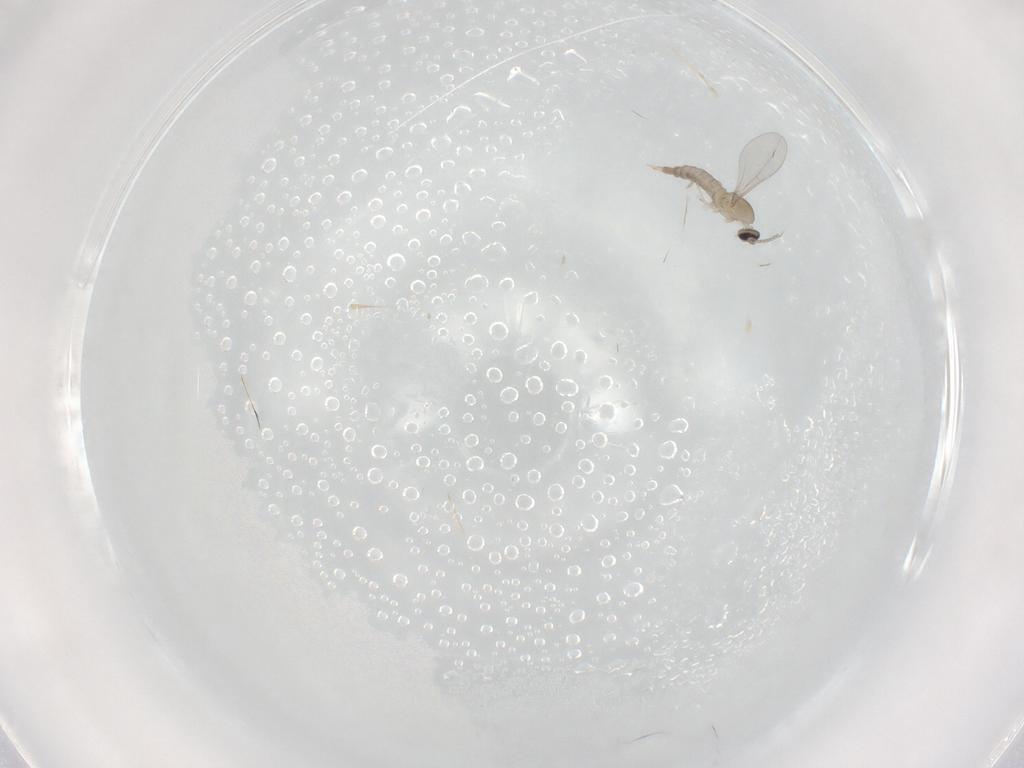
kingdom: Animalia
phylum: Arthropoda
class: Insecta
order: Diptera
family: Cecidomyiidae
